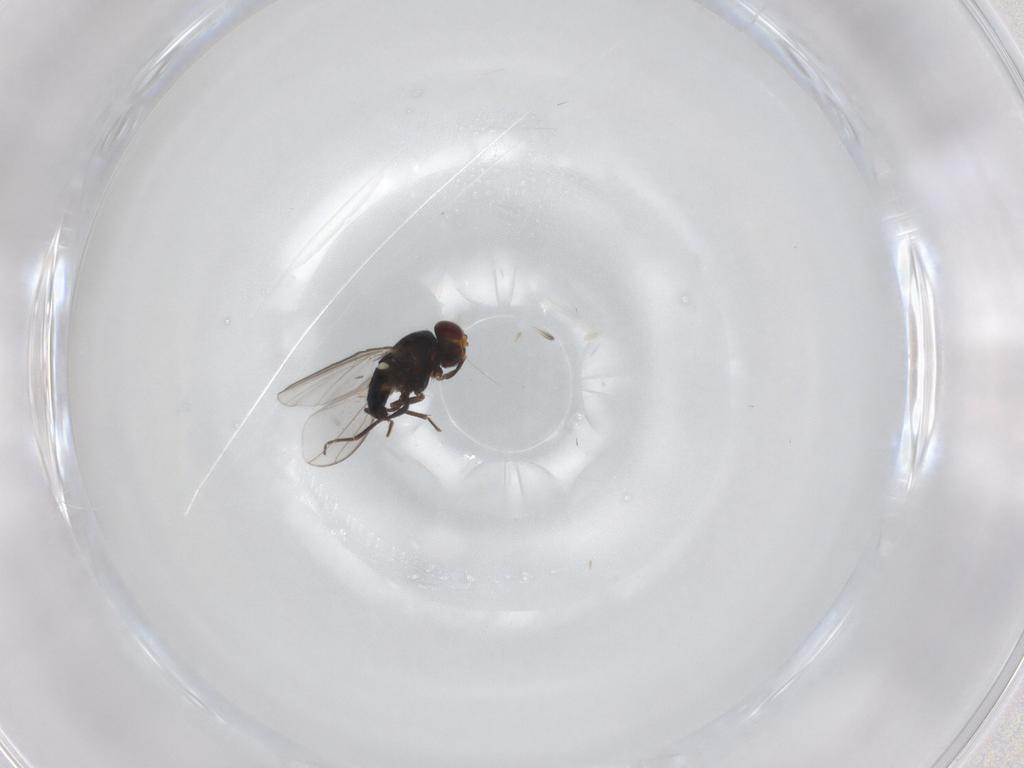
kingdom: Animalia
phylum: Arthropoda
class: Insecta
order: Diptera
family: Carnidae
